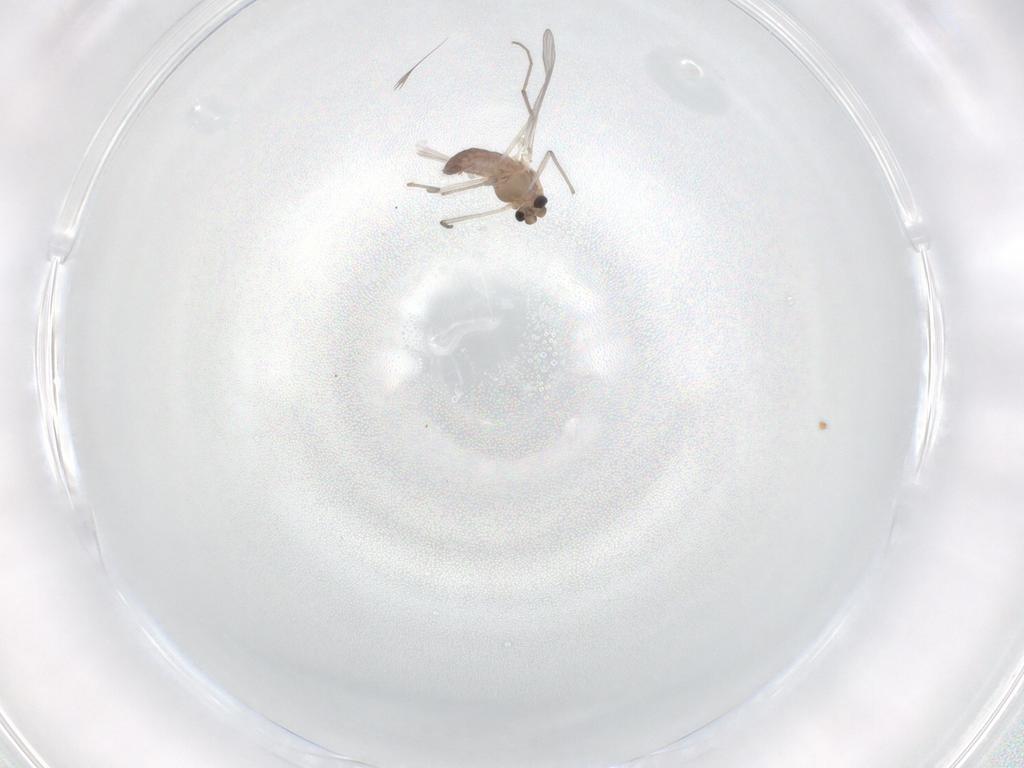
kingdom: Animalia
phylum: Arthropoda
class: Insecta
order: Diptera
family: Chironomidae
